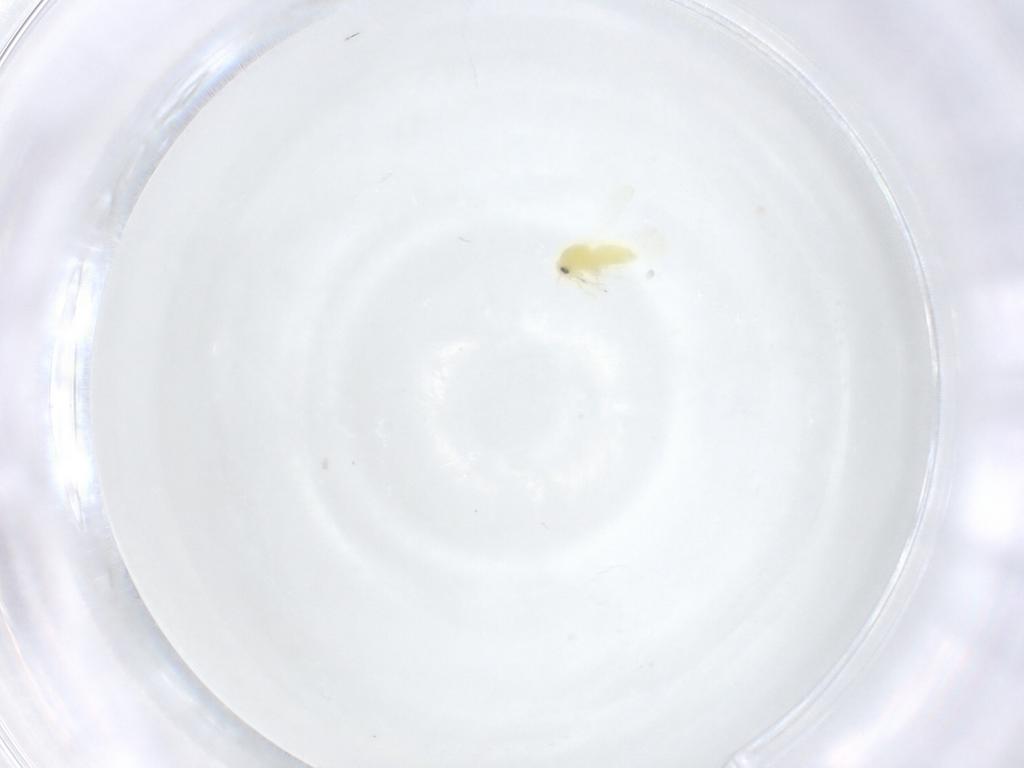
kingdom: Animalia
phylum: Arthropoda
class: Insecta
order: Hemiptera
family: Aleyrodidae
